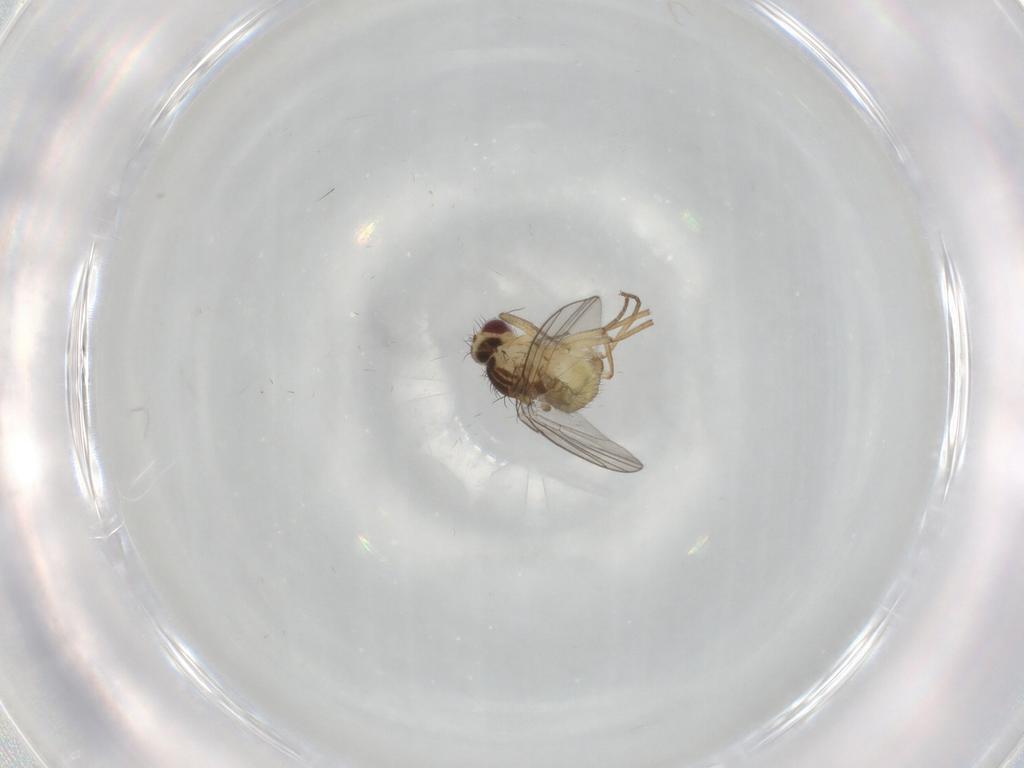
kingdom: Animalia
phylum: Arthropoda
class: Insecta
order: Diptera
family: Agromyzidae
